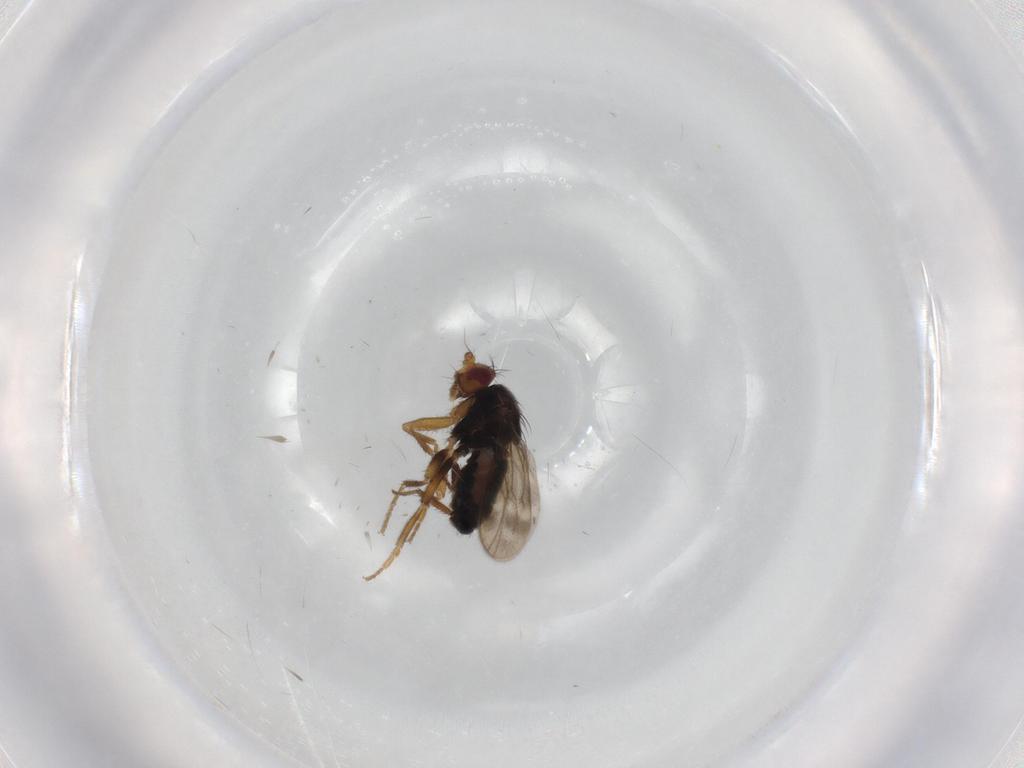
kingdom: Animalia
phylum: Arthropoda
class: Insecta
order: Diptera
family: Sphaeroceridae
